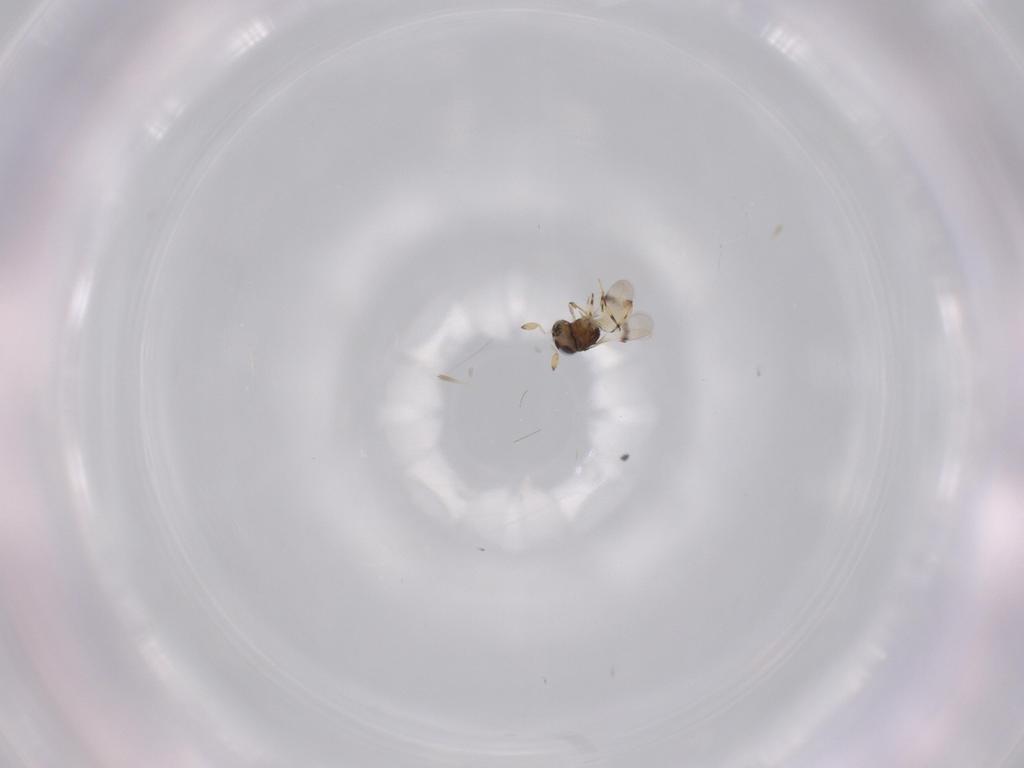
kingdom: Animalia
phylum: Arthropoda
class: Insecta
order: Hymenoptera
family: Scelionidae
